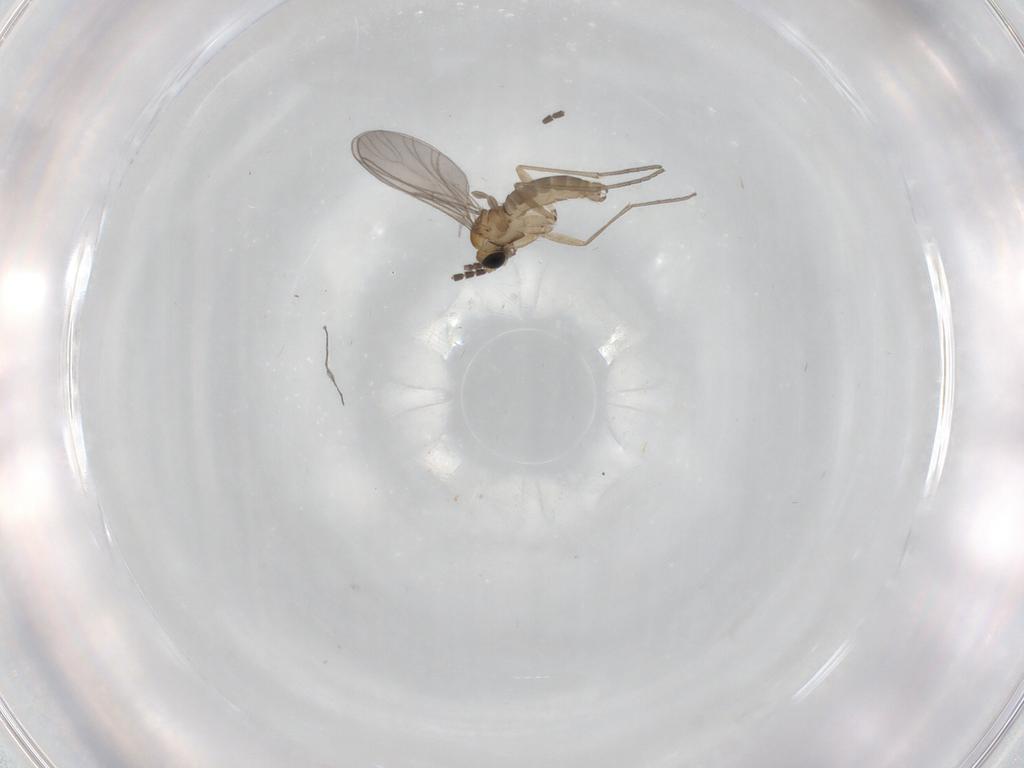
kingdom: Animalia
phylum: Arthropoda
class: Insecta
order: Diptera
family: Sciaridae
